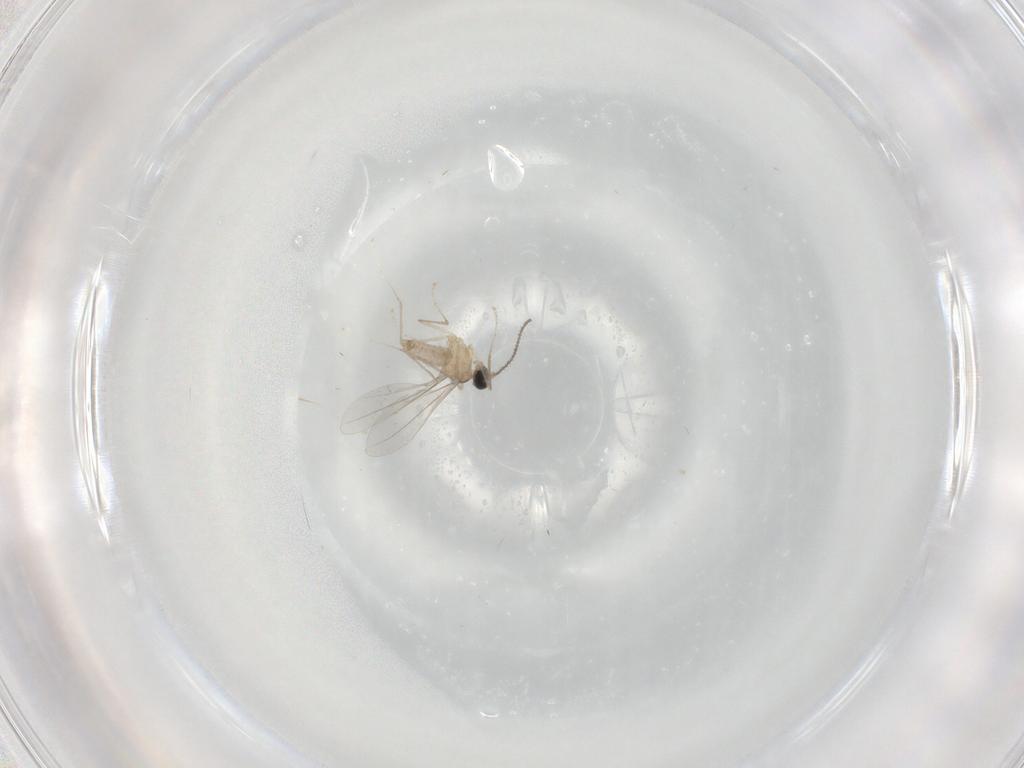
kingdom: Animalia
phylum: Arthropoda
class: Insecta
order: Diptera
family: Cecidomyiidae
